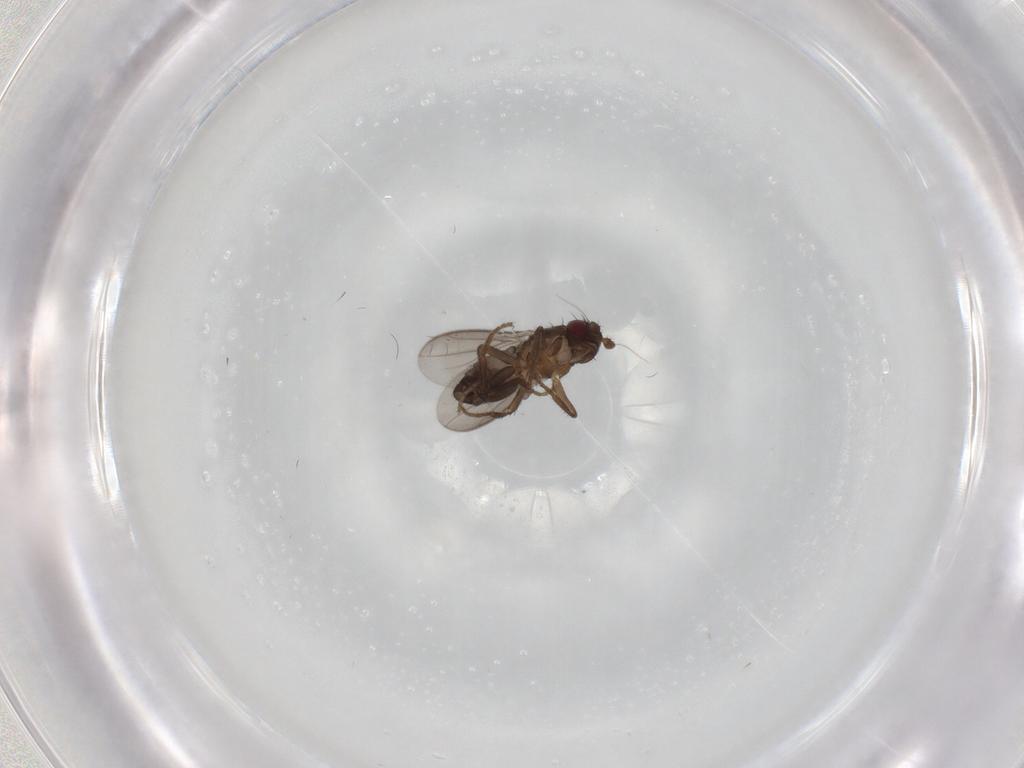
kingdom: Animalia
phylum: Arthropoda
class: Insecta
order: Diptera
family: Sphaeroceridae
